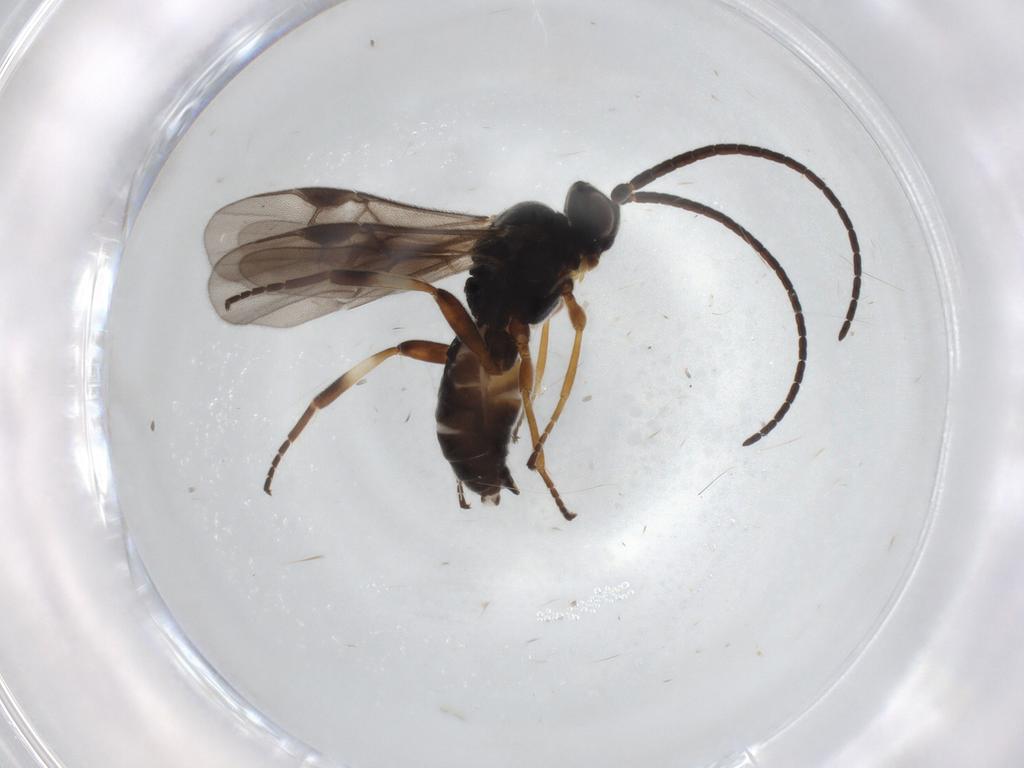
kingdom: Animalia
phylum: Arthropoda
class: Insecta
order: Hymenoptera
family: Braconidae
